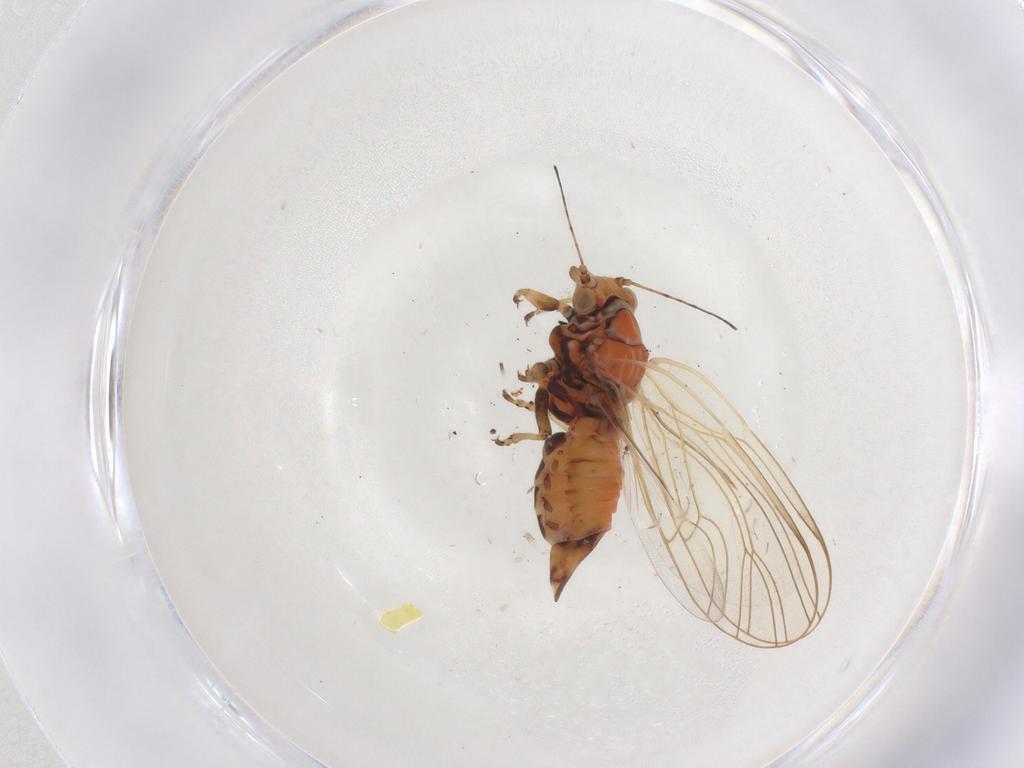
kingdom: Animalia
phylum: Arthropoda
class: Insecta
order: Hemiptera
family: Psyllidae
